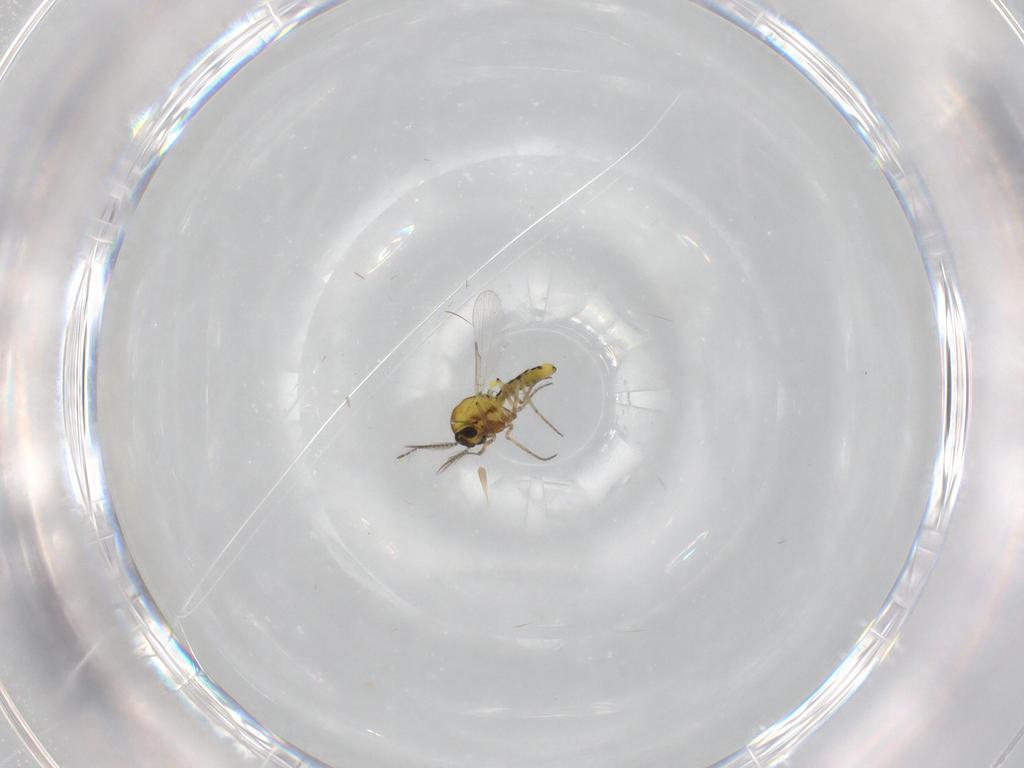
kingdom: Animalia
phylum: Arthropoda
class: Insecta
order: Diptera
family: Ceratopogonidae
